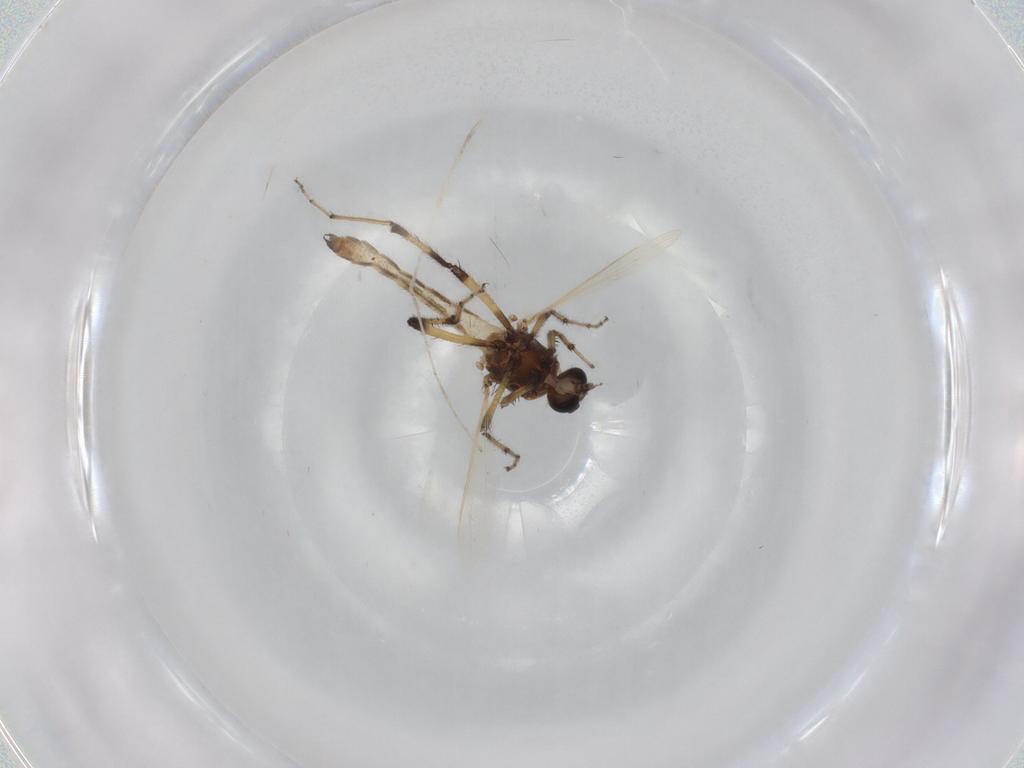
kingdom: Animalia
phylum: Arthropoda
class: Insecta
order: Diptera
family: Ceratopogonidae
